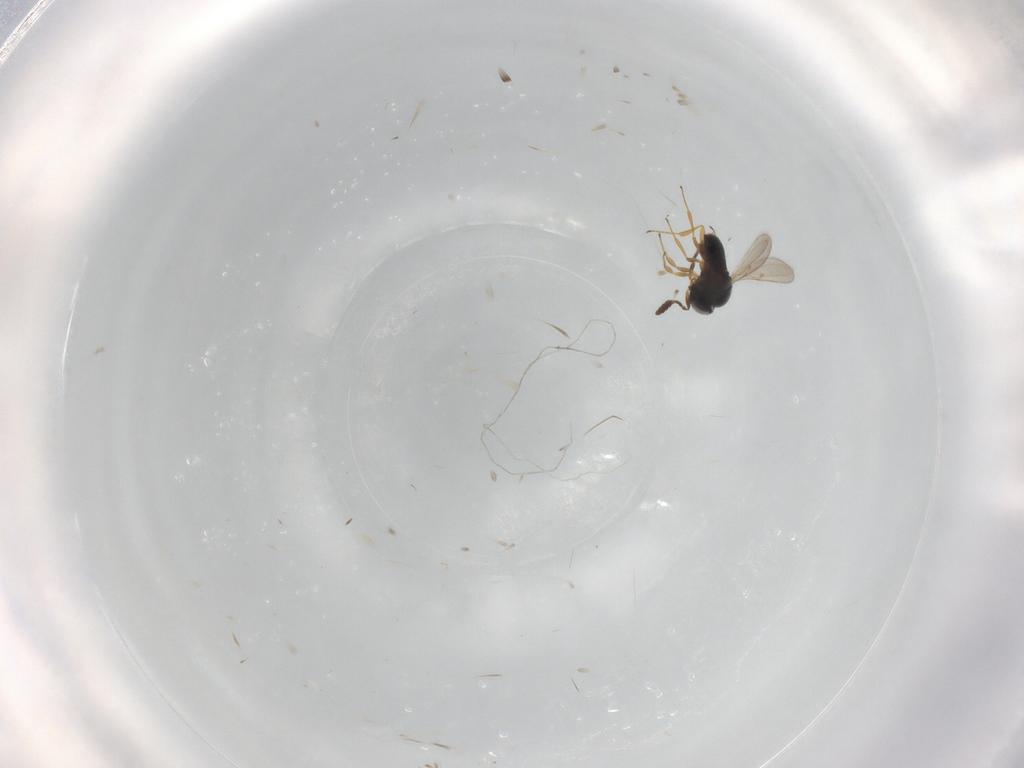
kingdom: Animalia
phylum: Arthropoda
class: Insecta
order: Hymenoptera
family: Scelionidae
